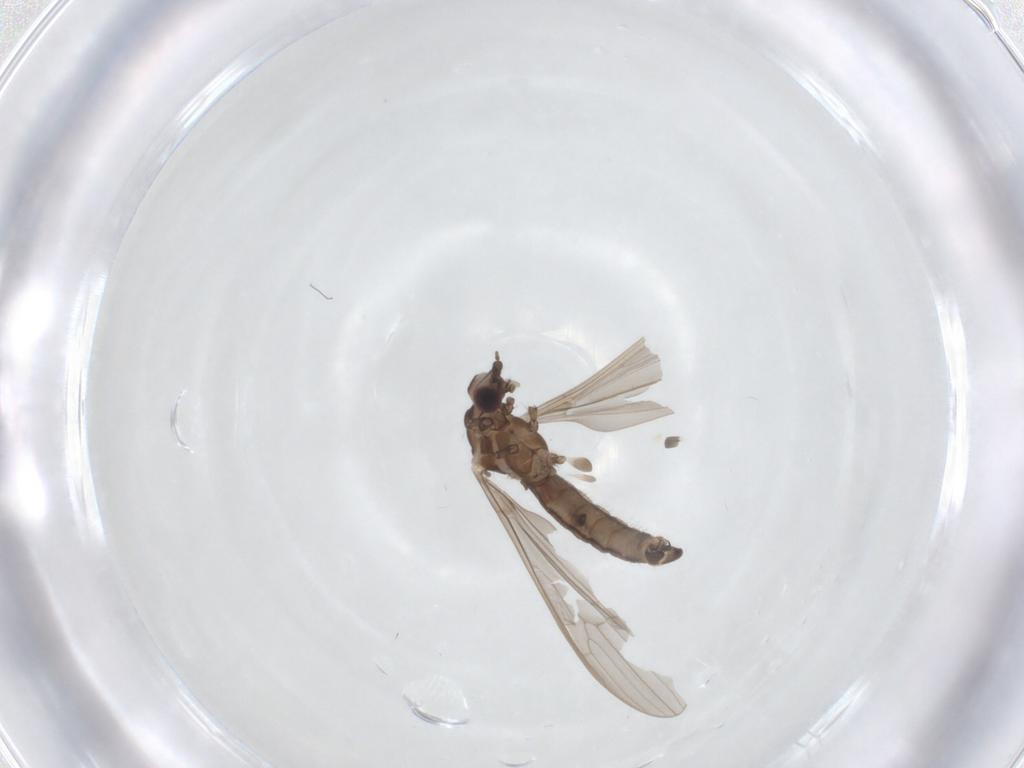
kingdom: Animalia
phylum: Arthropoda
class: Insecta
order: Diptera
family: Limoniidae
